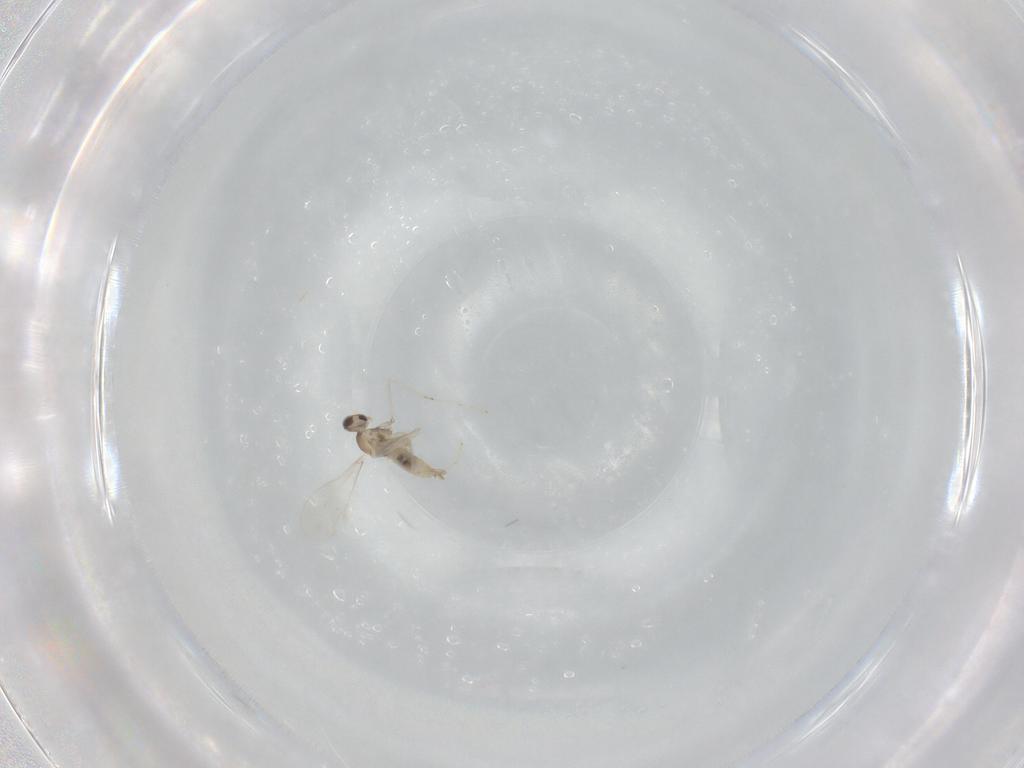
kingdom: Animalia
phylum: Arthropoda
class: Insecta
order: Diptera
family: Cecidomyiidae
